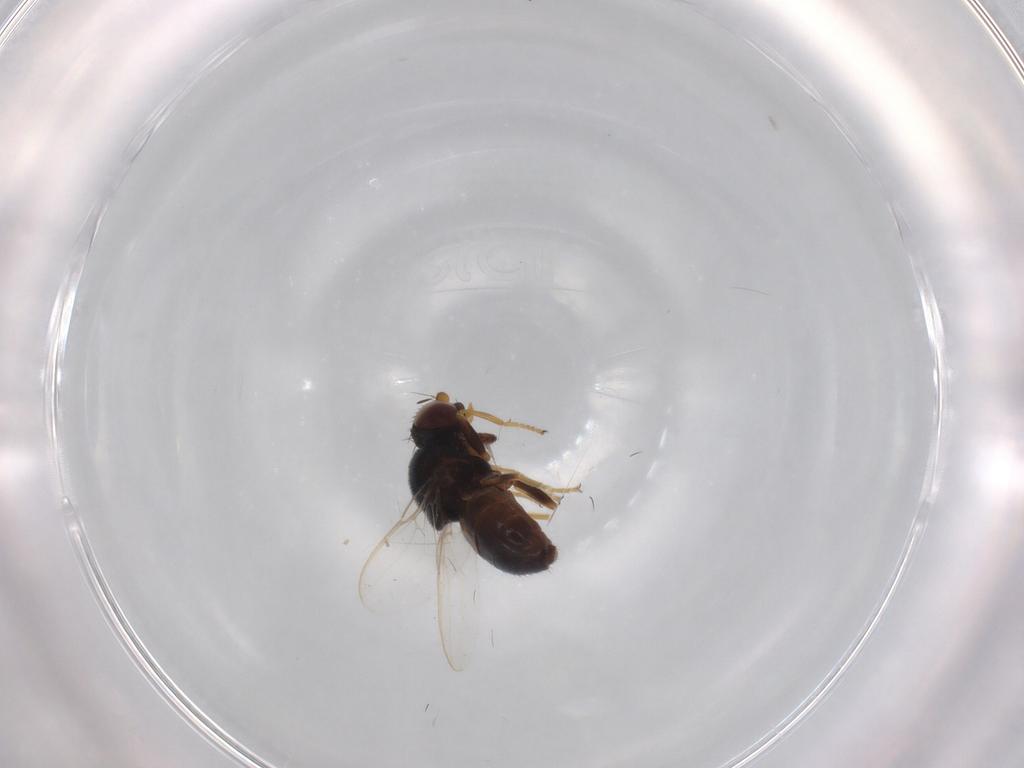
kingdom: Animalia
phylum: Arthropoda
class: Insecta
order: Diptera
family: Chloropidae
